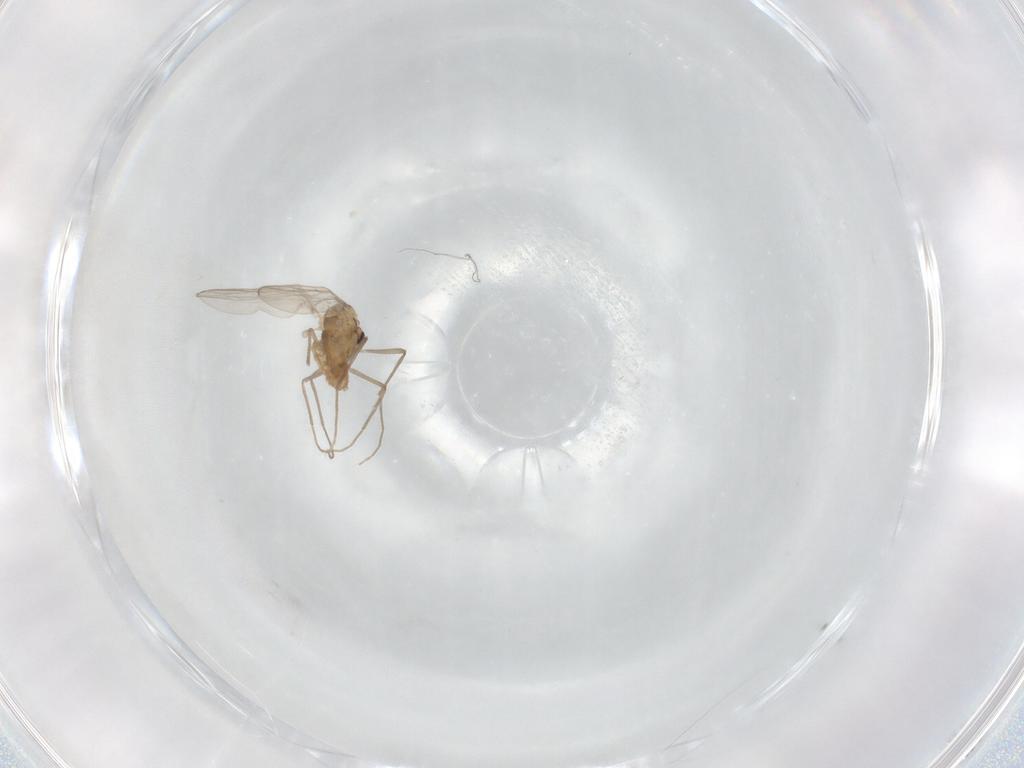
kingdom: Animalia
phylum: Arthropoda
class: Insecta
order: Diptera
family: Chironomidae
